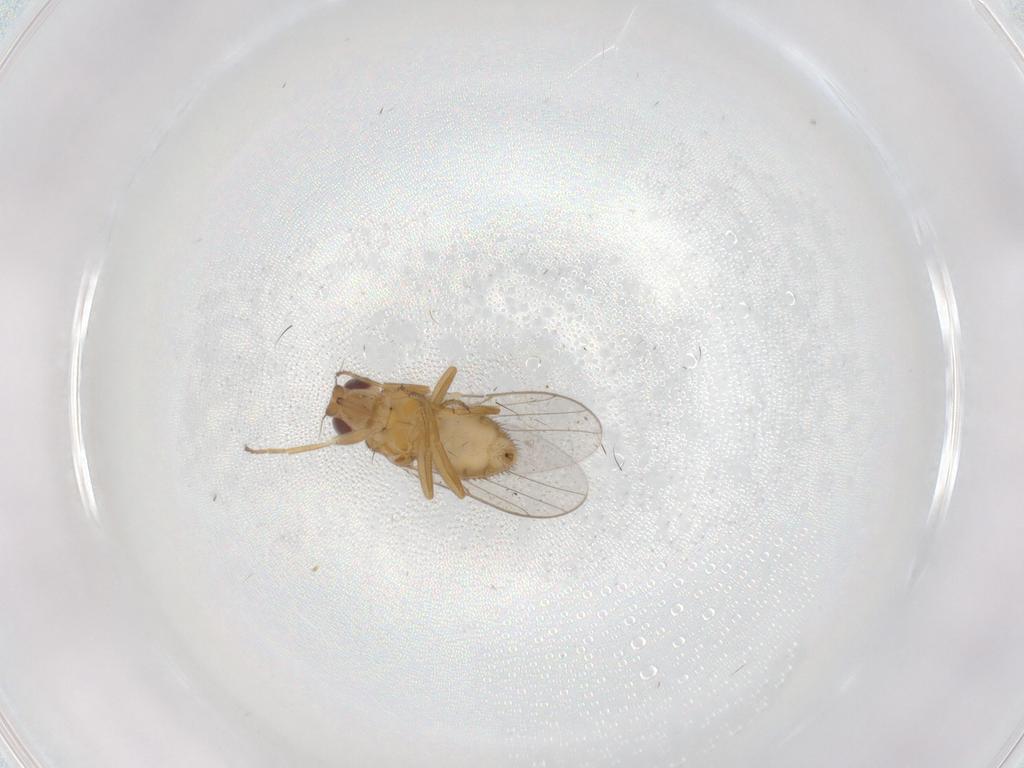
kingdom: Animalia
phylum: Arthropoda
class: Insecta
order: Diptera
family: Chloropidae
